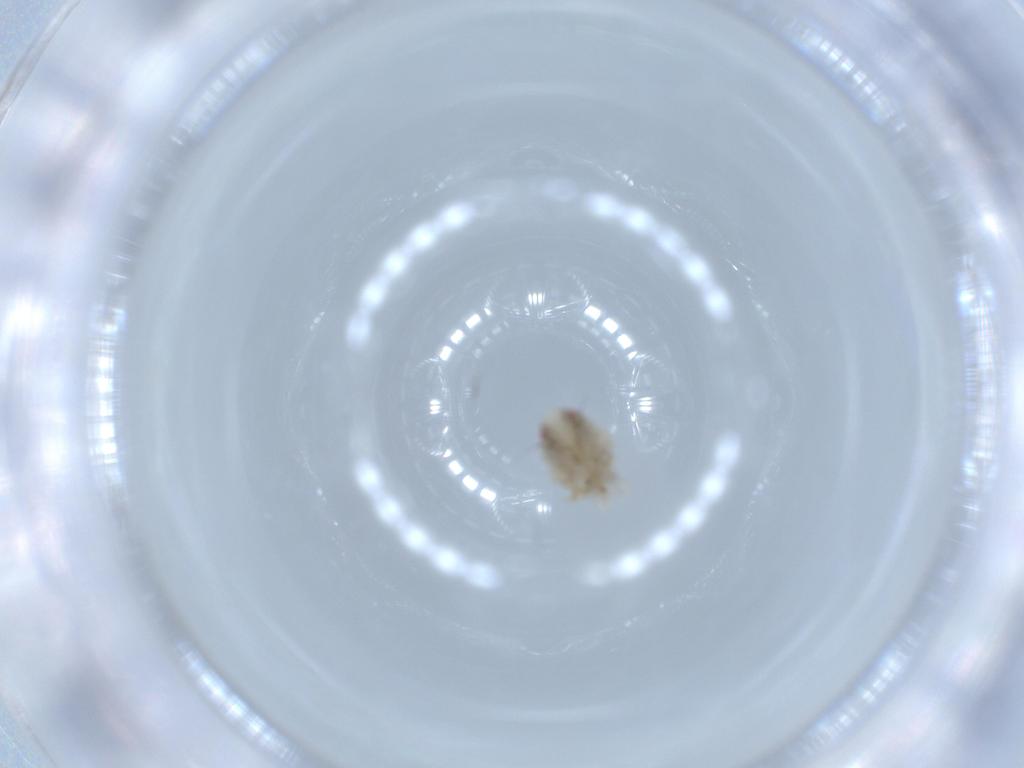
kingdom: Animalia
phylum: Arthropoda
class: Insecta
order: Hemiptera
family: Acanaloniidae
